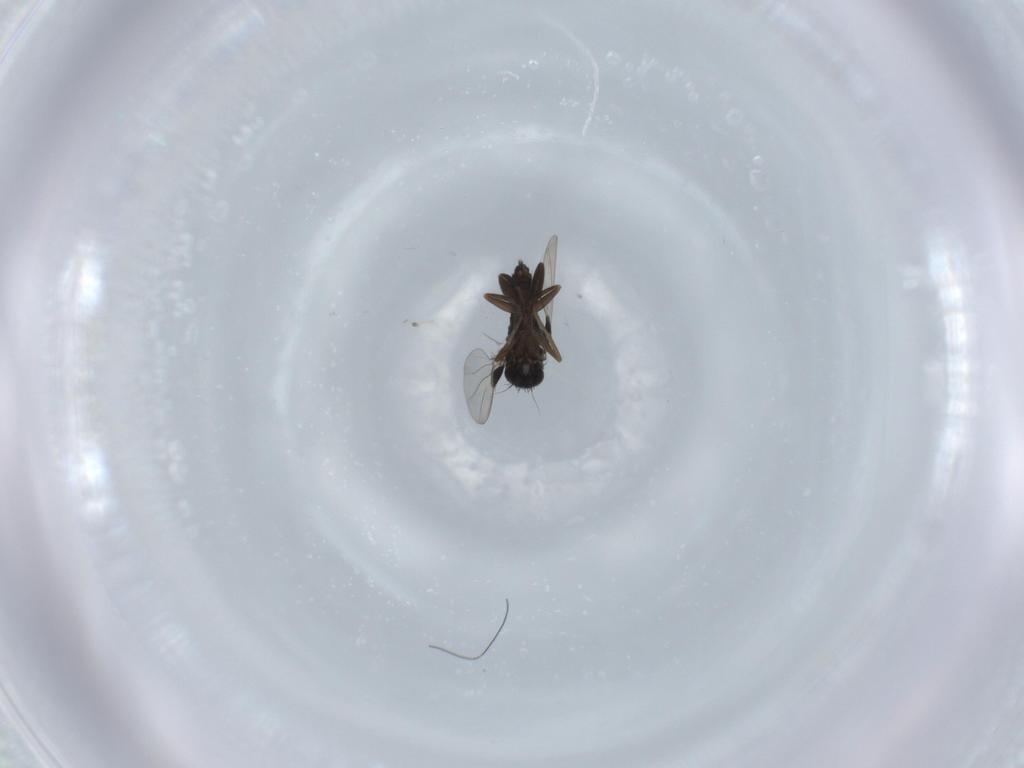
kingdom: Animalia
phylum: Arthropoda
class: Insecta
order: Diptera
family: Phoridae
